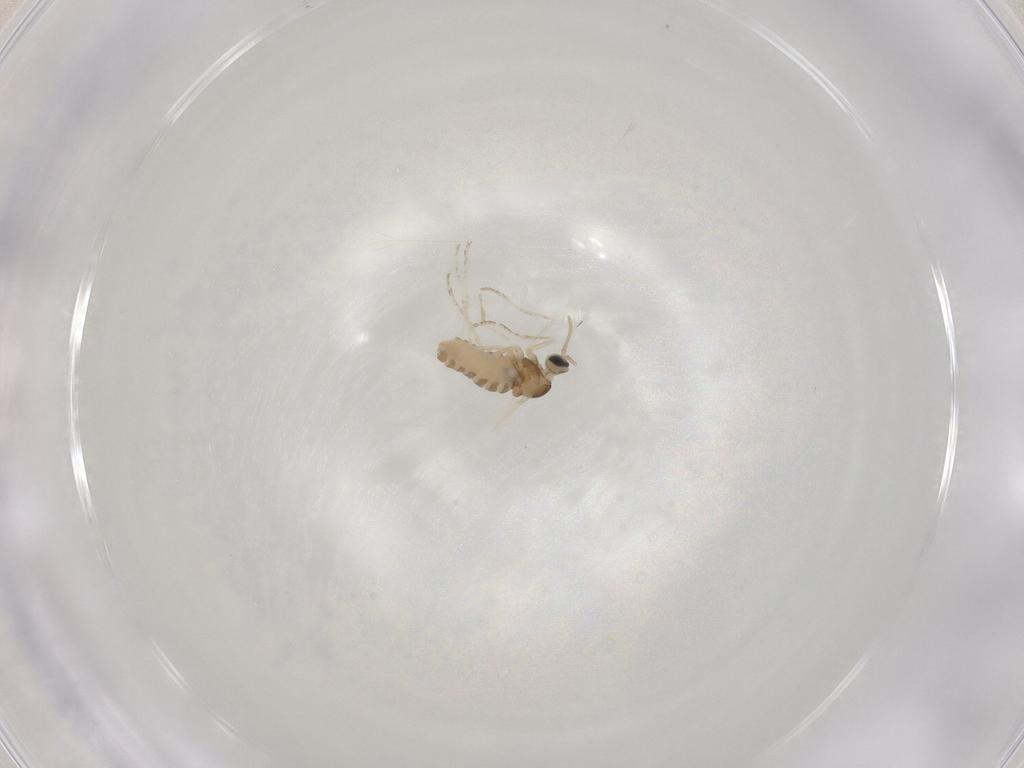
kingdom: Animalia
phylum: Arthropoda
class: Insecta
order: Diptera
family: Cecidomyiidae
